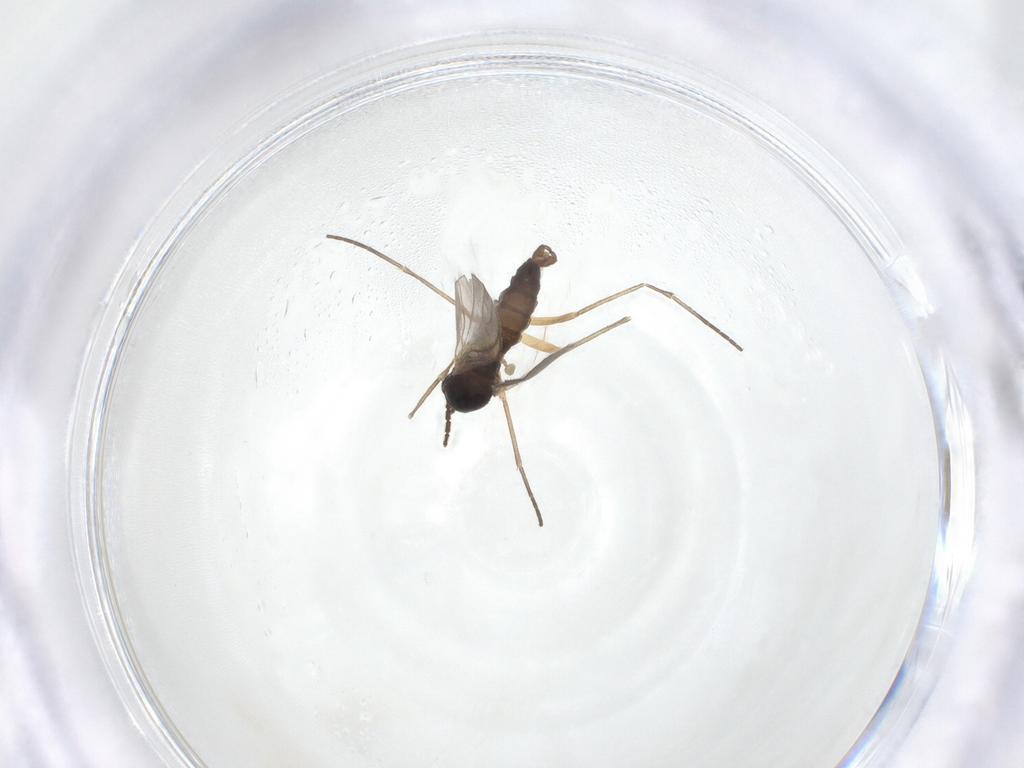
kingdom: Animalia
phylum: Arthropoda
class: Insecta
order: Diptera
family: Sciaridae
